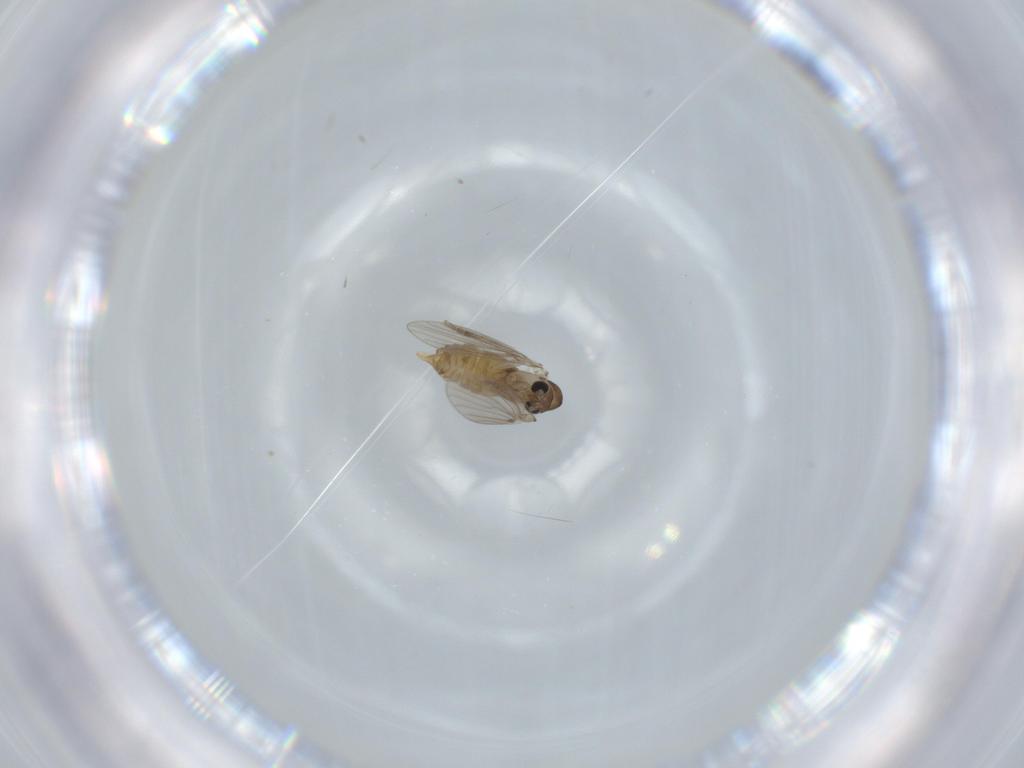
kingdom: Animalia
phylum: Arthropoda
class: Insecta
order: Diptera
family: Psychodidae
